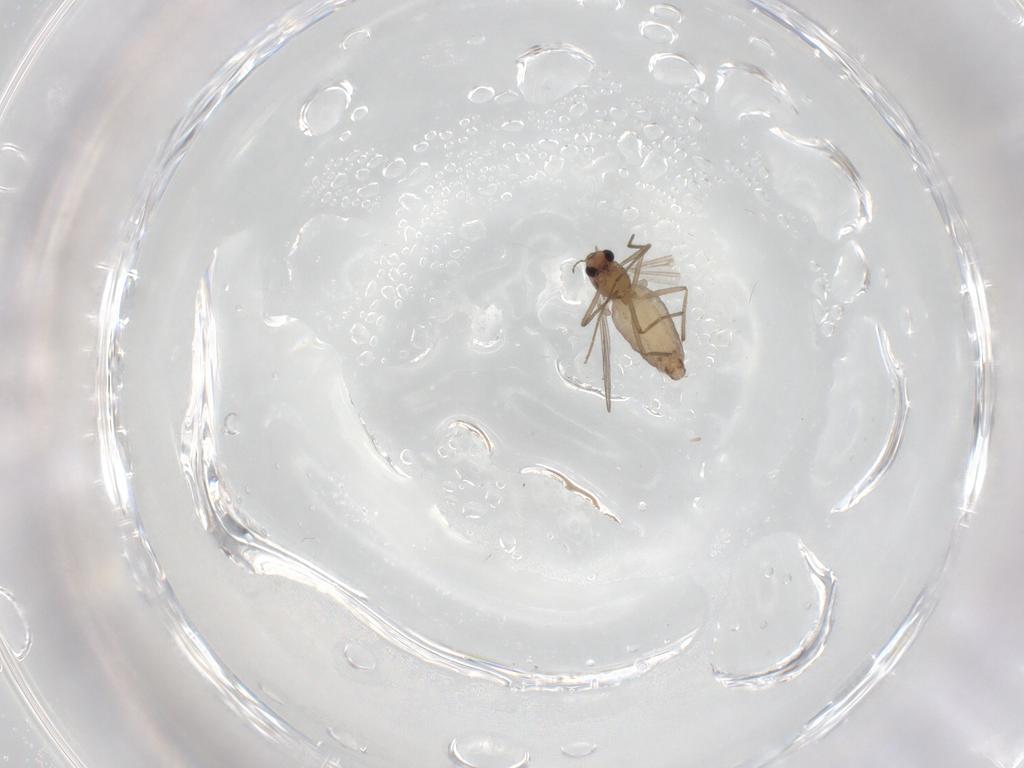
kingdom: Animalia
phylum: Arthropoda
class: Insecta
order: Diptera
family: Chironomidae
